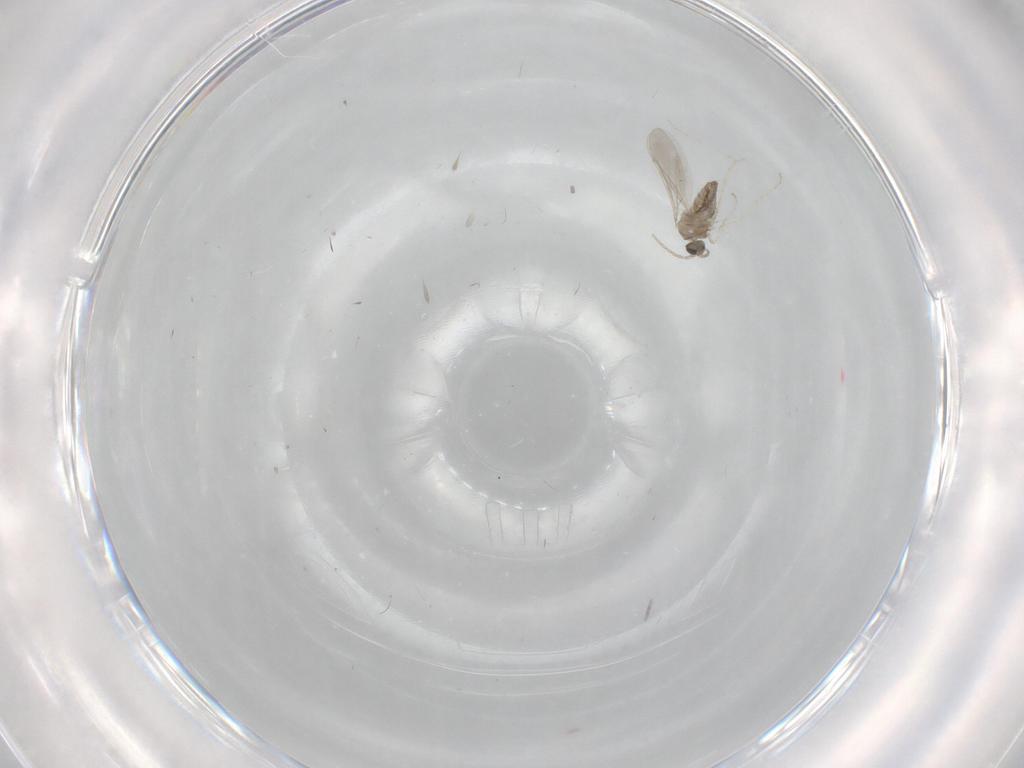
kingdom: Animalia
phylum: Arthropoda
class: Insecta
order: Diptera
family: Cecidomyiidae
